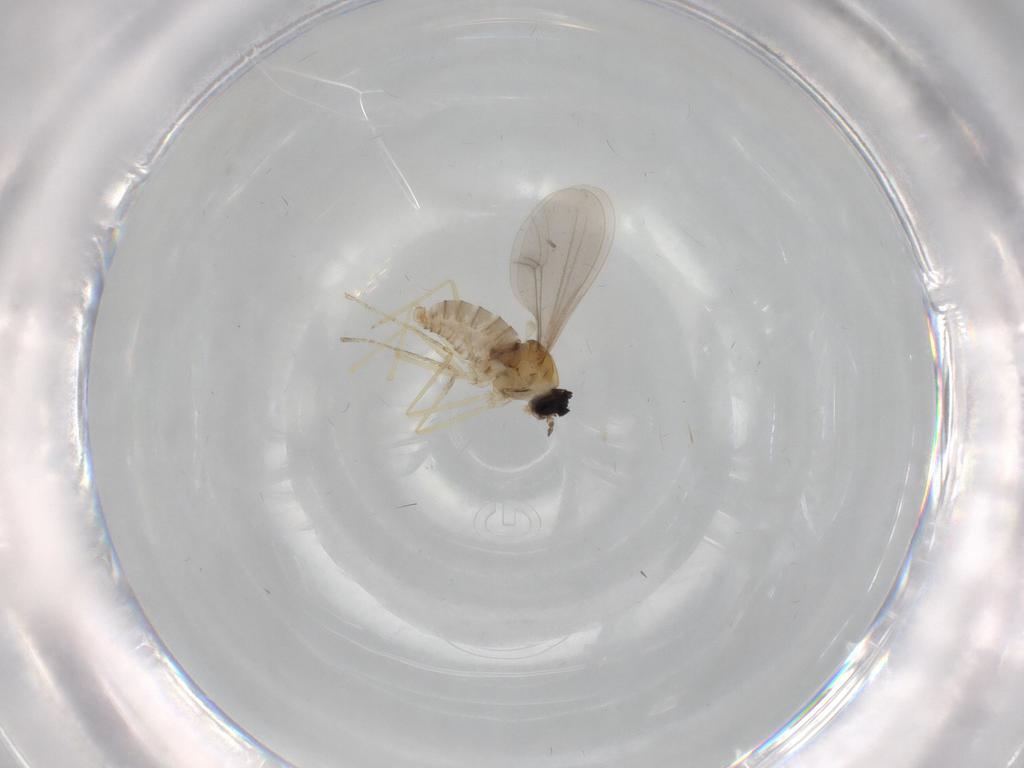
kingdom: Animalia
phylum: Arthropoda
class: Insecta
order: Diptera
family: Cecidomyiidae
